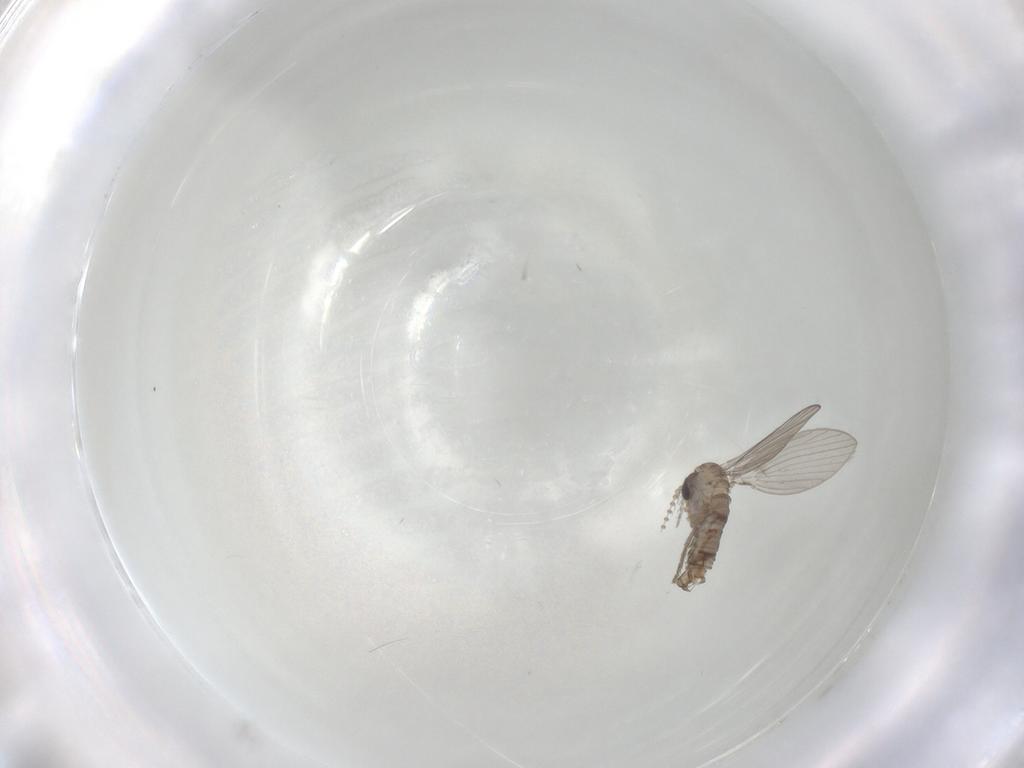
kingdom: Animalia
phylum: Arthropoda
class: Insecta
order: Diptera
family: Psychodidae
